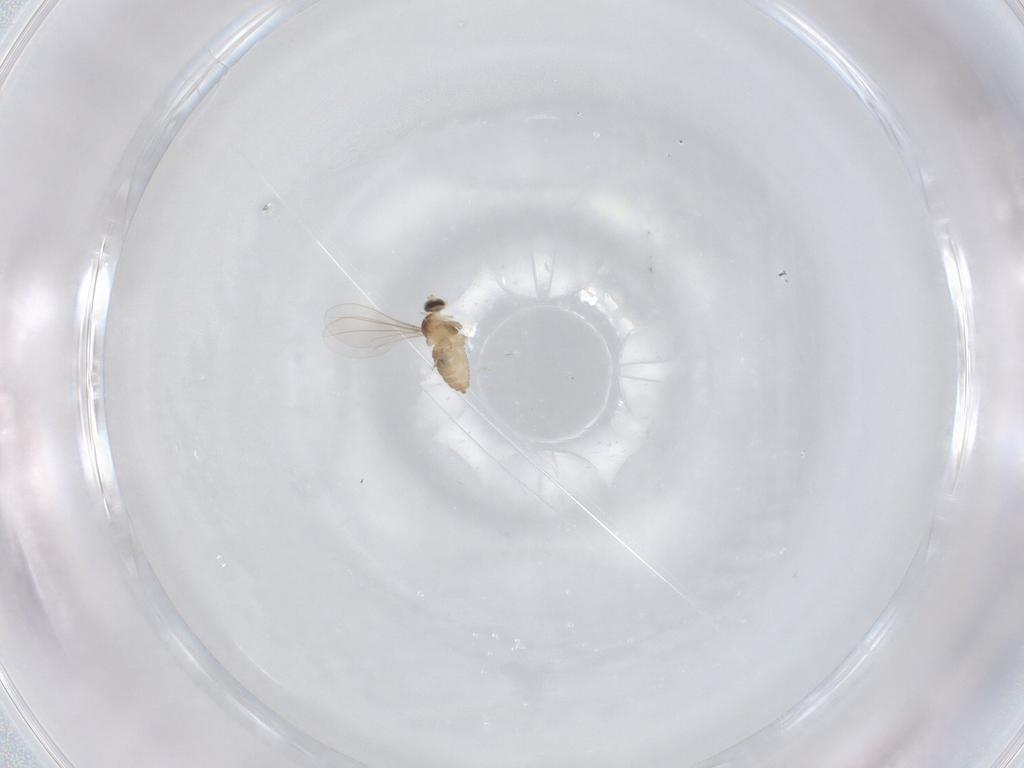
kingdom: Animalia
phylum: Arthropoda
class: Insecta
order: Diptera
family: Cecidomyiidae
